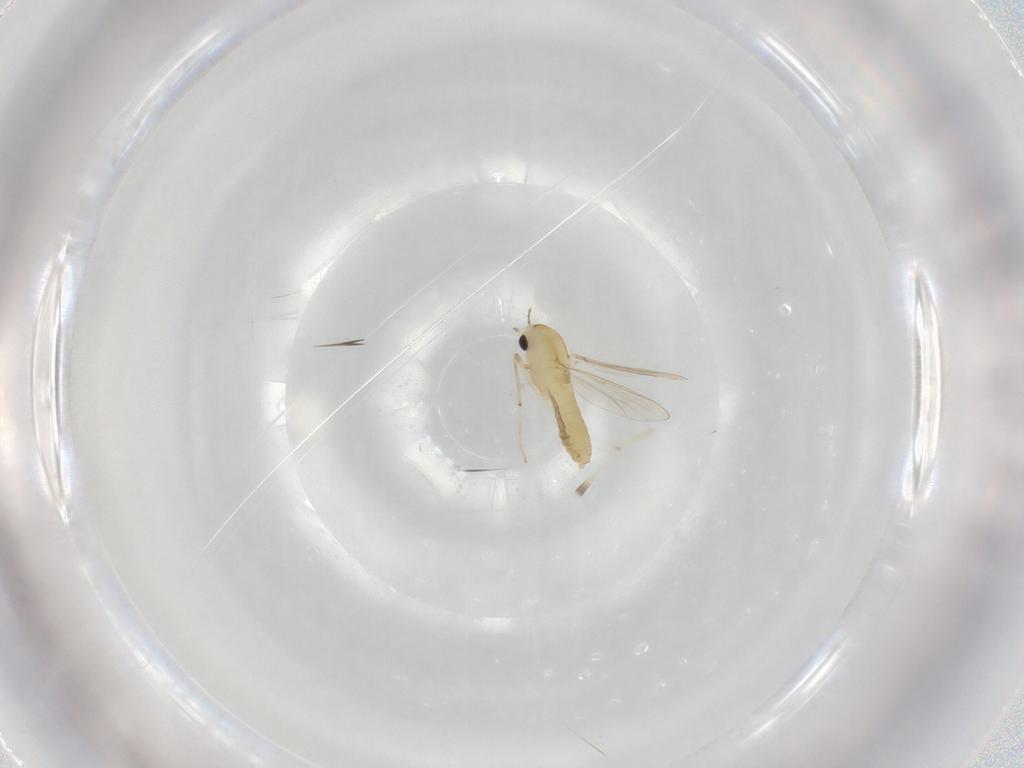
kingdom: Animalia
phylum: Arthropoda
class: Insecta
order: Diptera
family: Chironomidae
